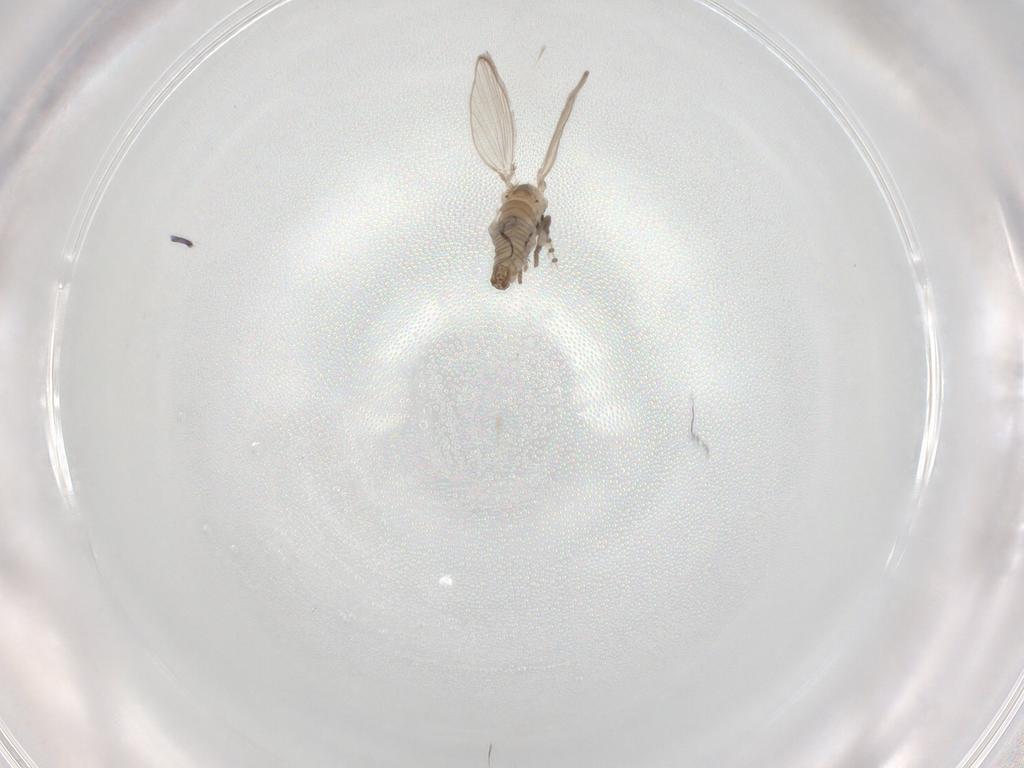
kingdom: Animalia
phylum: Arthropoda
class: Insecta
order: Diptera
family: Psychodidae
